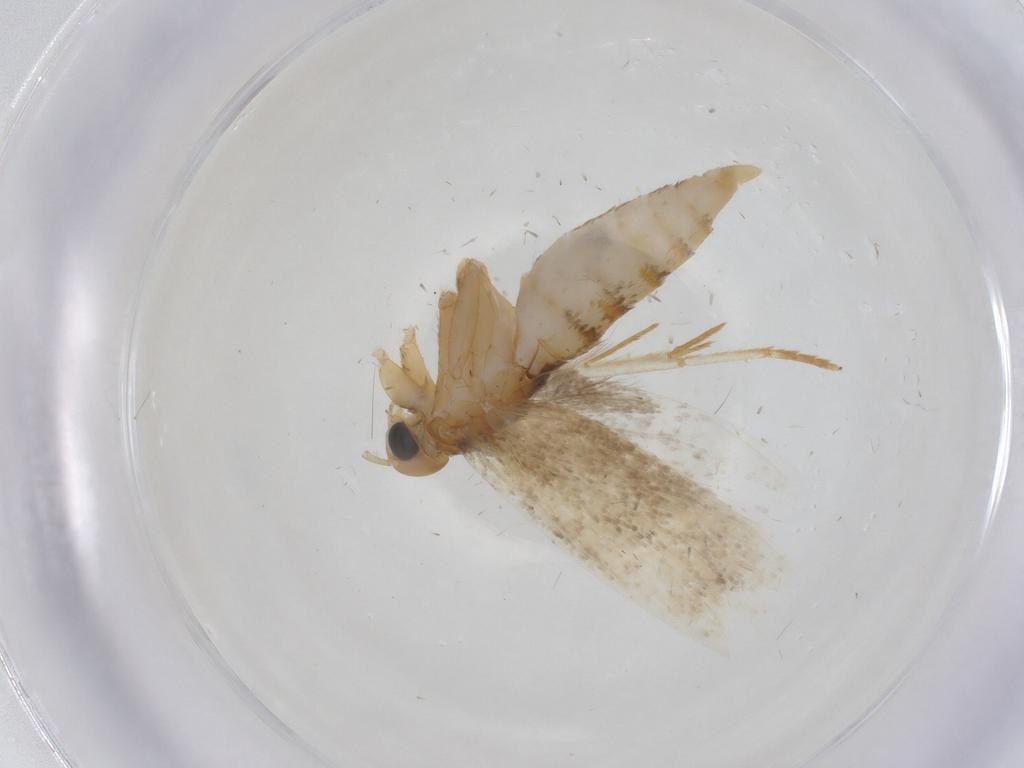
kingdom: Animalia
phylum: Arthropoda
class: Insecta
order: Lepidoptera
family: Oecophoridae
